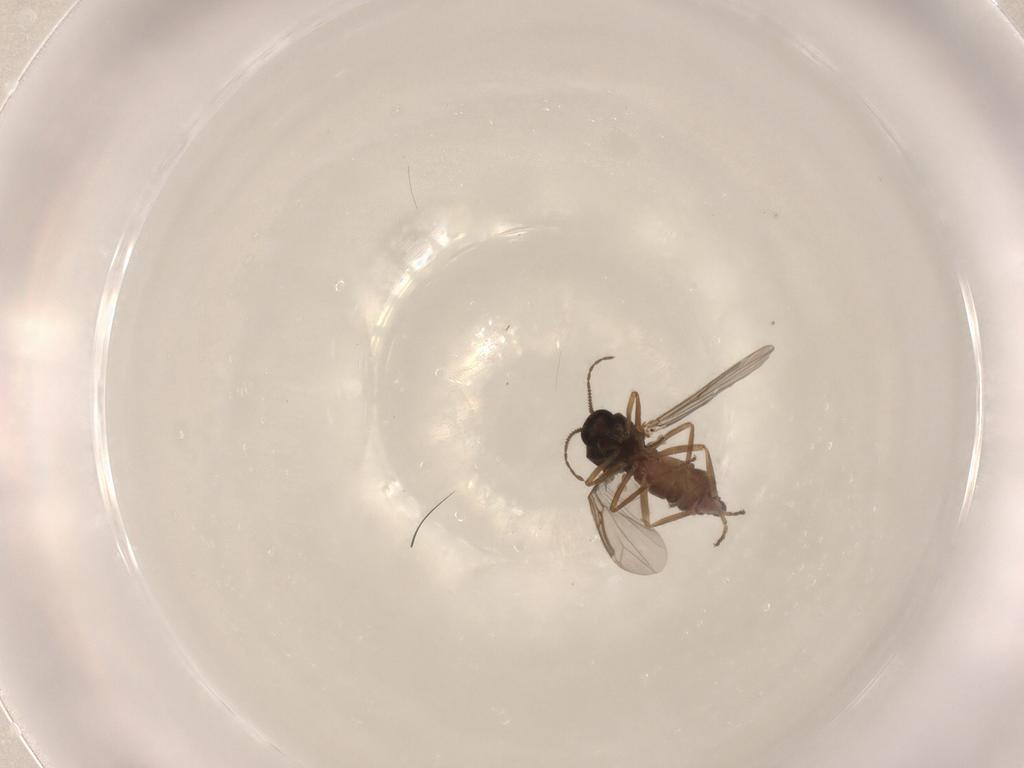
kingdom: Animalia
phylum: Arthropoda
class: Insecta
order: Diptera
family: Ceratopogonidae
